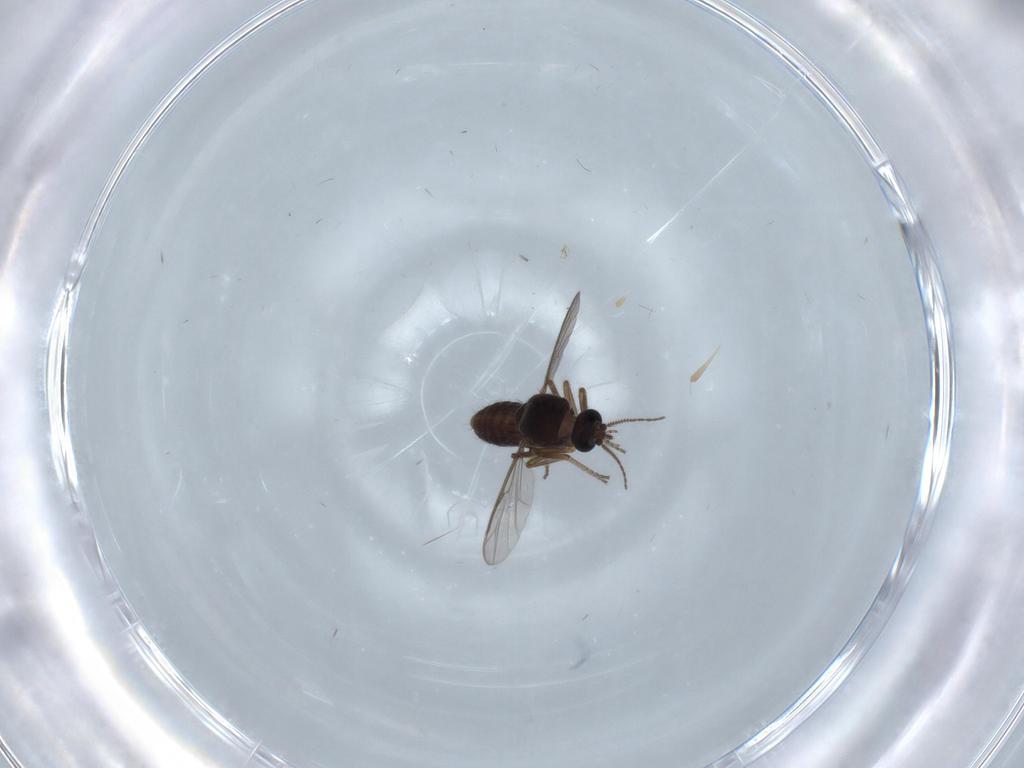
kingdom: Animalia
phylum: Arthropoda
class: Insecta
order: Diptera
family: Ceratopogonidae
